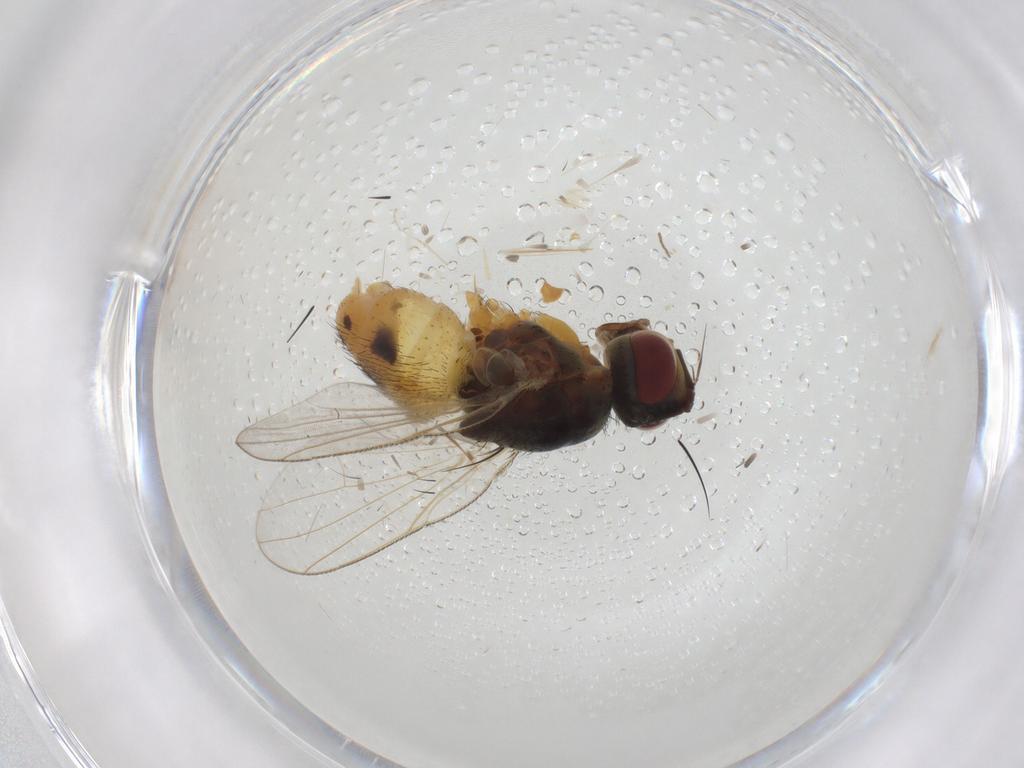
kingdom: Animalia
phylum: Arthropoda
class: Insecta
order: Diptera
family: Muscidae
